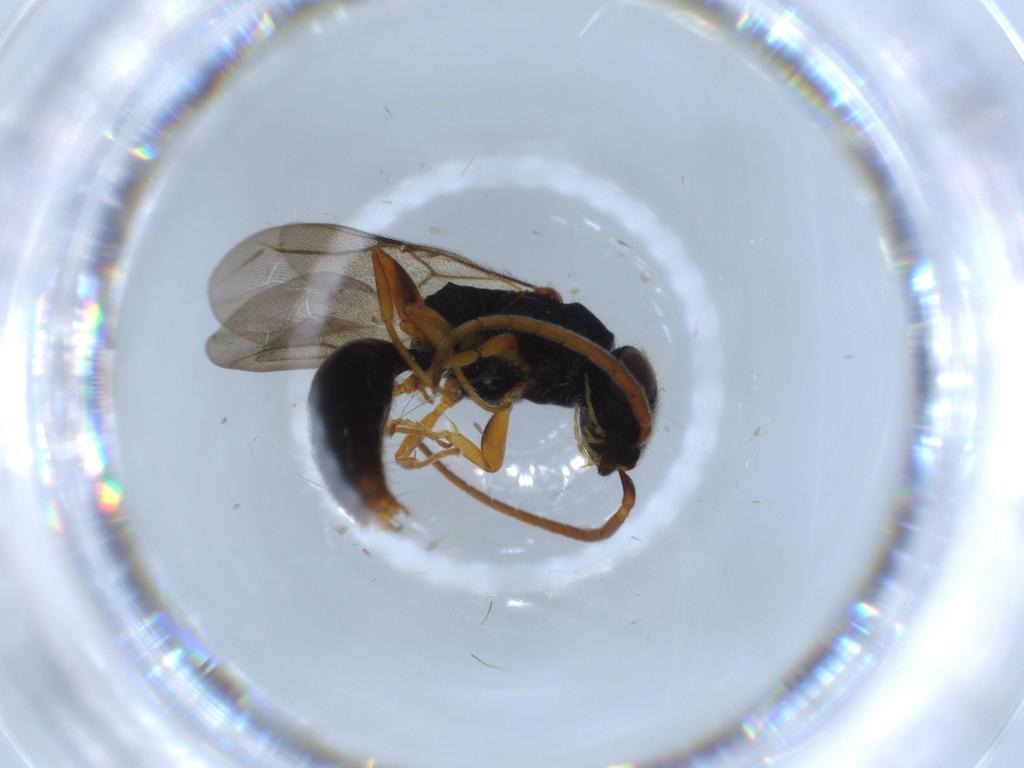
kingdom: Animalia
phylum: Arthropoda
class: Insecta
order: Hymenoptera
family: Bethylidae
